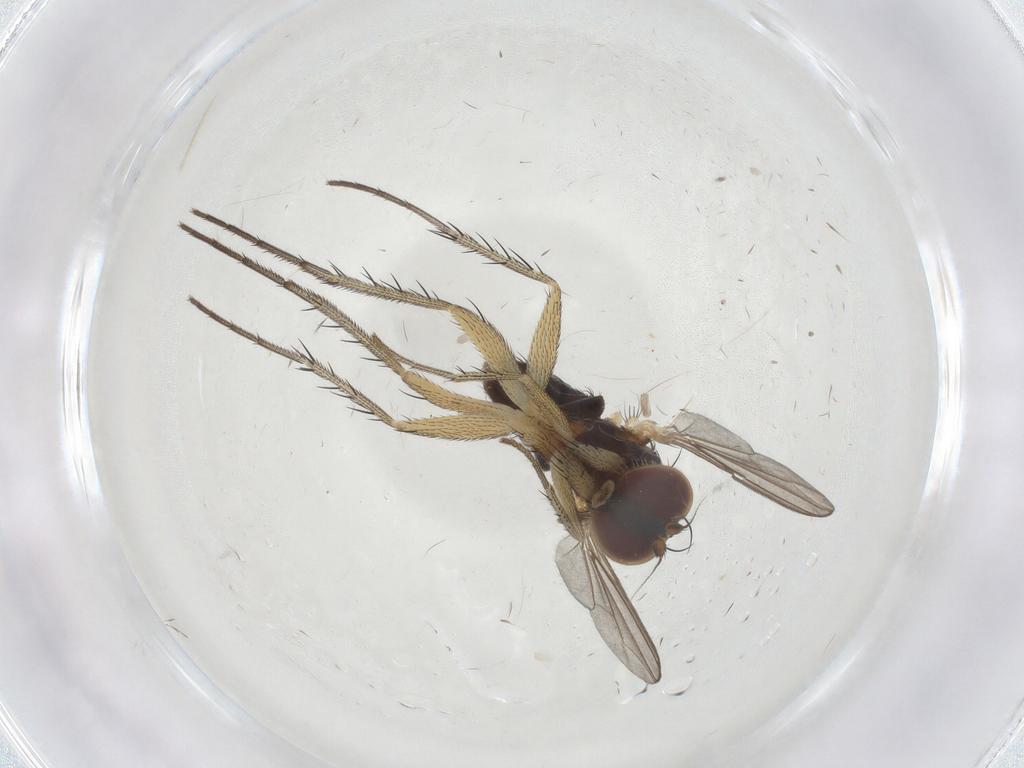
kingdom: Animalia
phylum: Arthropoda
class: Insecta
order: Diptera
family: Dolichopodidae
